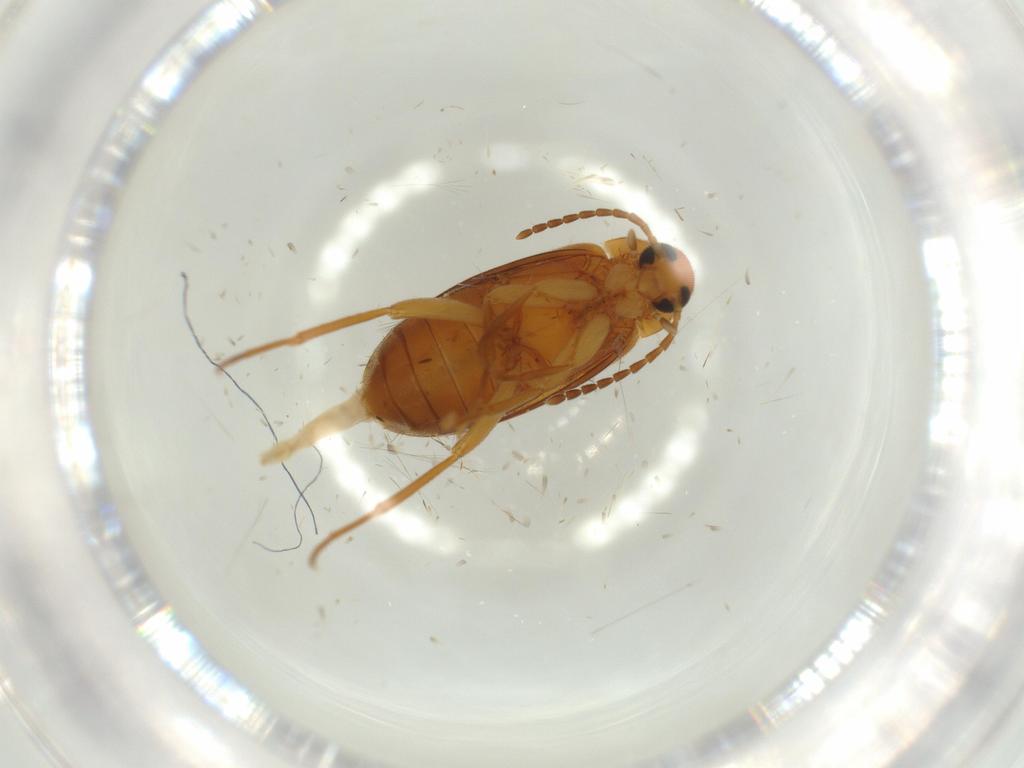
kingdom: Animalia
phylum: Arthropoda
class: Insecta
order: Coleoptera
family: Scraptiidae
